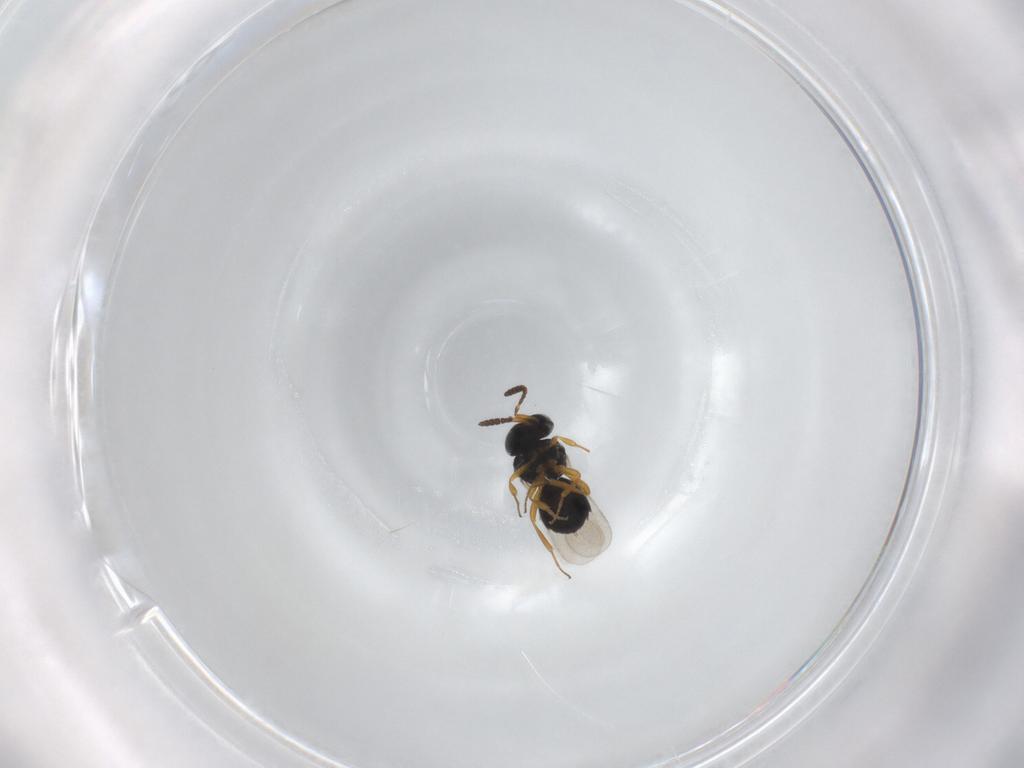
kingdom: Animalia
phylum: Arthropoda
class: Insecta
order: Hymenoptera
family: Scelionidae
